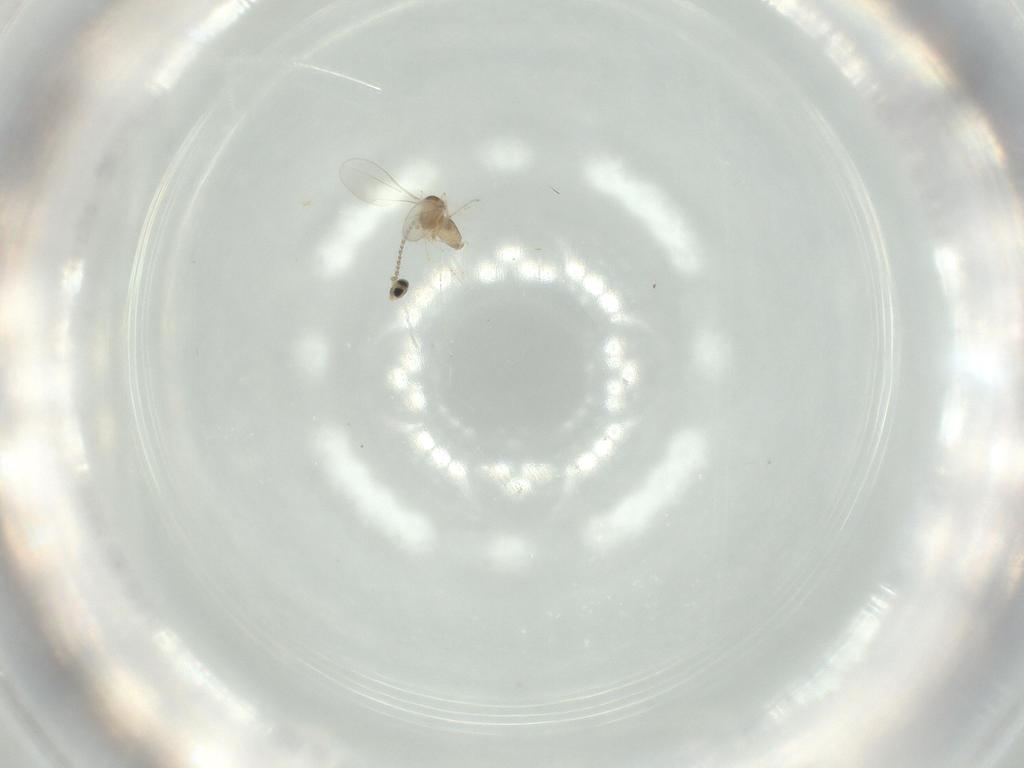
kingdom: Animalia
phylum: Arthropoda
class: Insecta
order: Diptera
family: Cecidomyiidae
